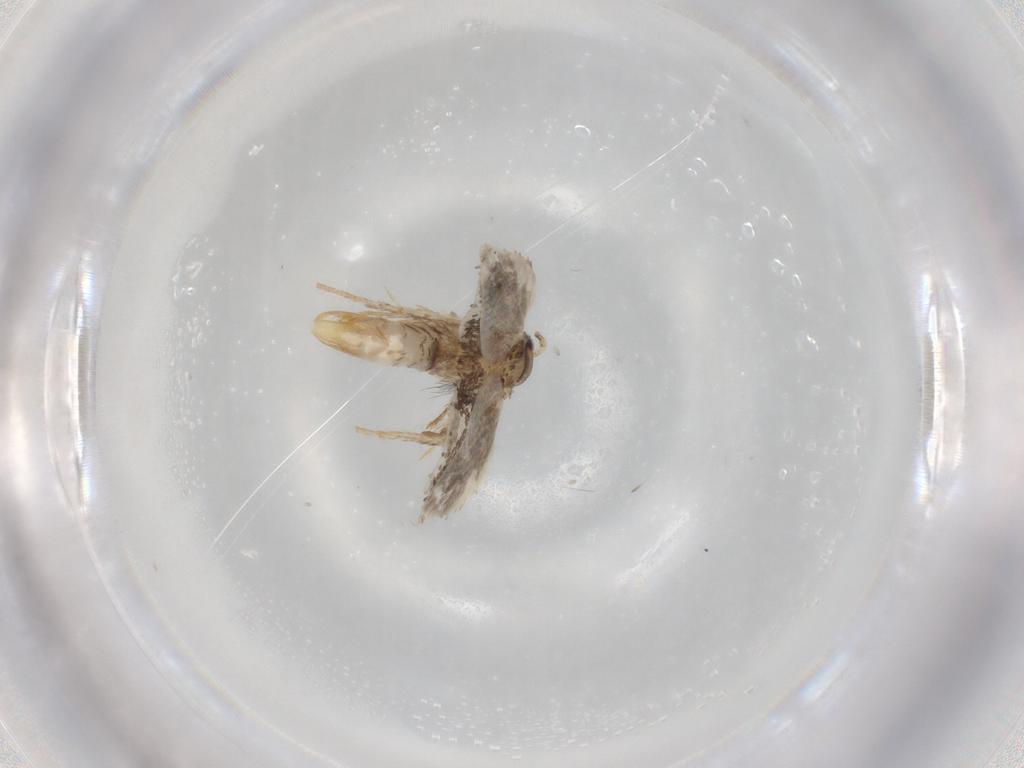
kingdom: Animalia
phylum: Arthropoda
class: Insecta
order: Lepidoptera
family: Tineidae
